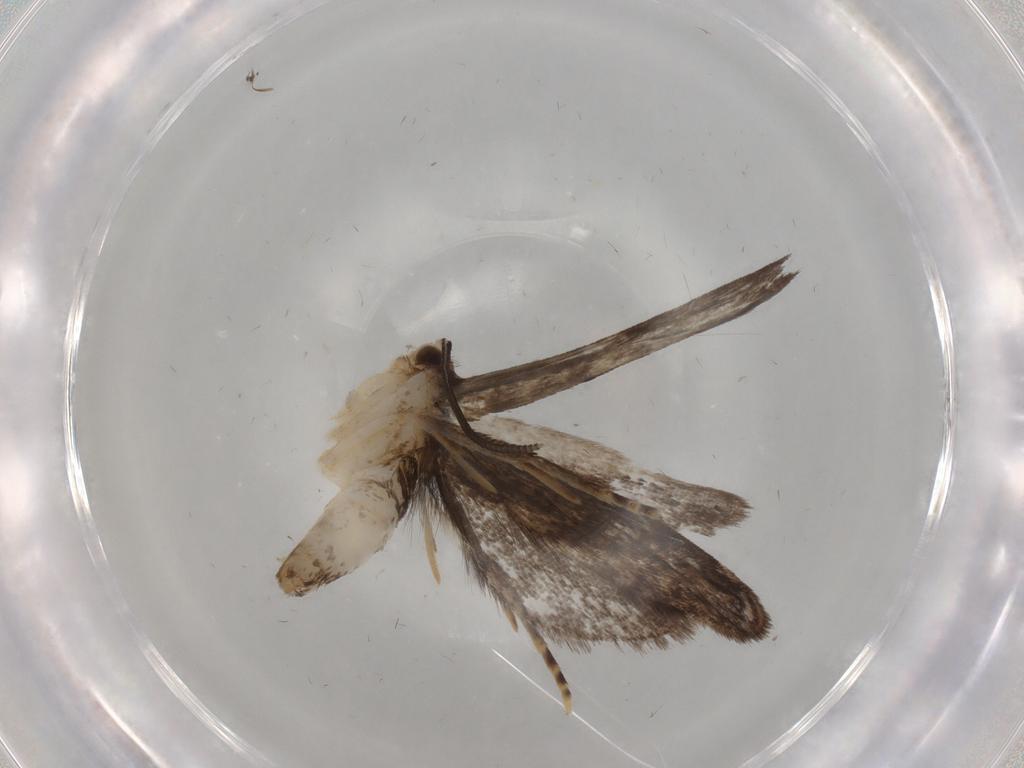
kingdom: Animalia
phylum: Arthropoda
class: Insecta
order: Lepidoptera
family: Dryadaulidae
